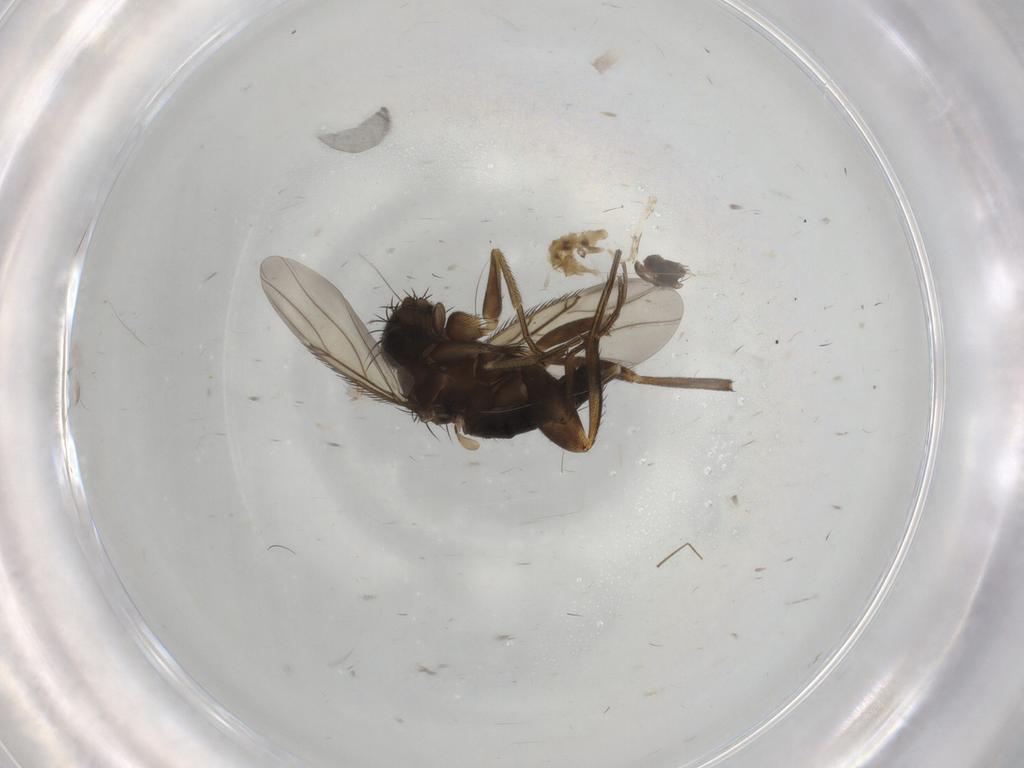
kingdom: Animalia
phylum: Arthropoda
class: Insecta
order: Diptera
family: Chironomidae
